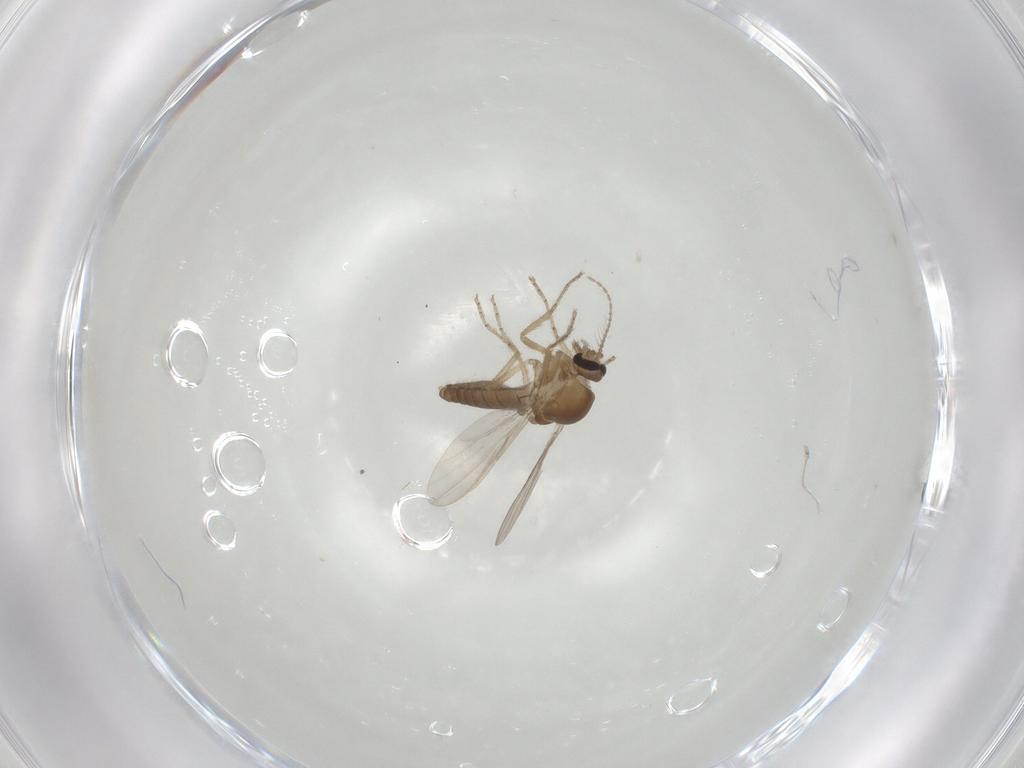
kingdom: Animalia
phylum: Arthropoda
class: Insecta
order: Diptera
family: Ceratopogonidae
